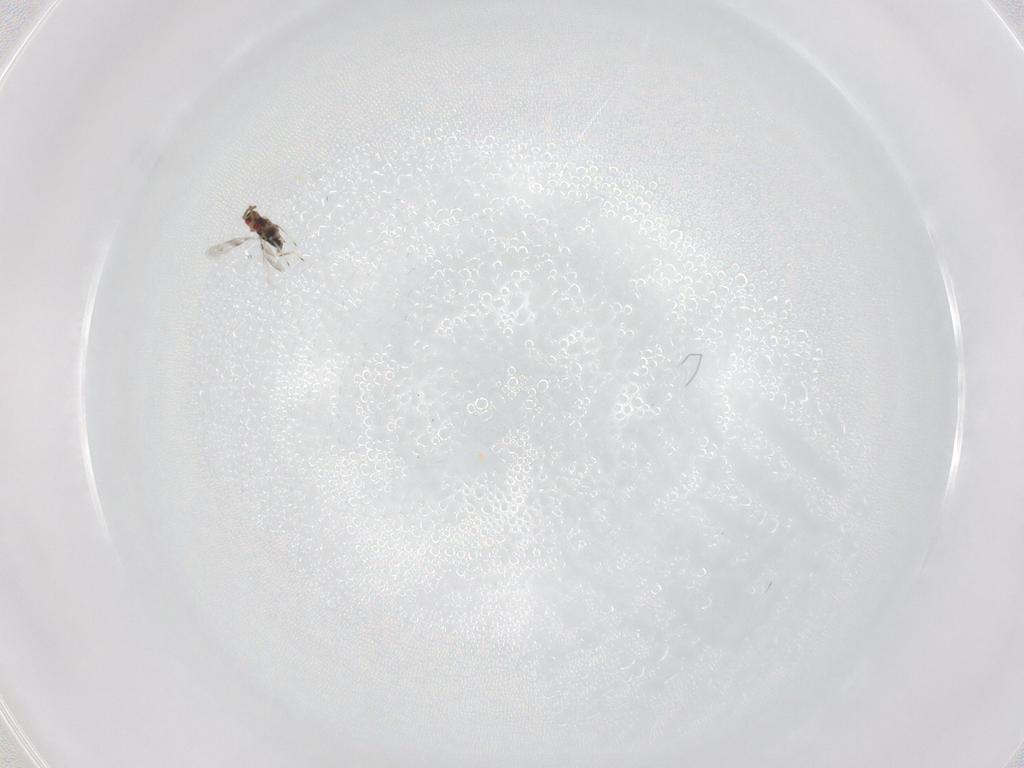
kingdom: Animalia
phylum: Arthropoda
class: Insecta
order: Hymenoptera
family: Azotidae
